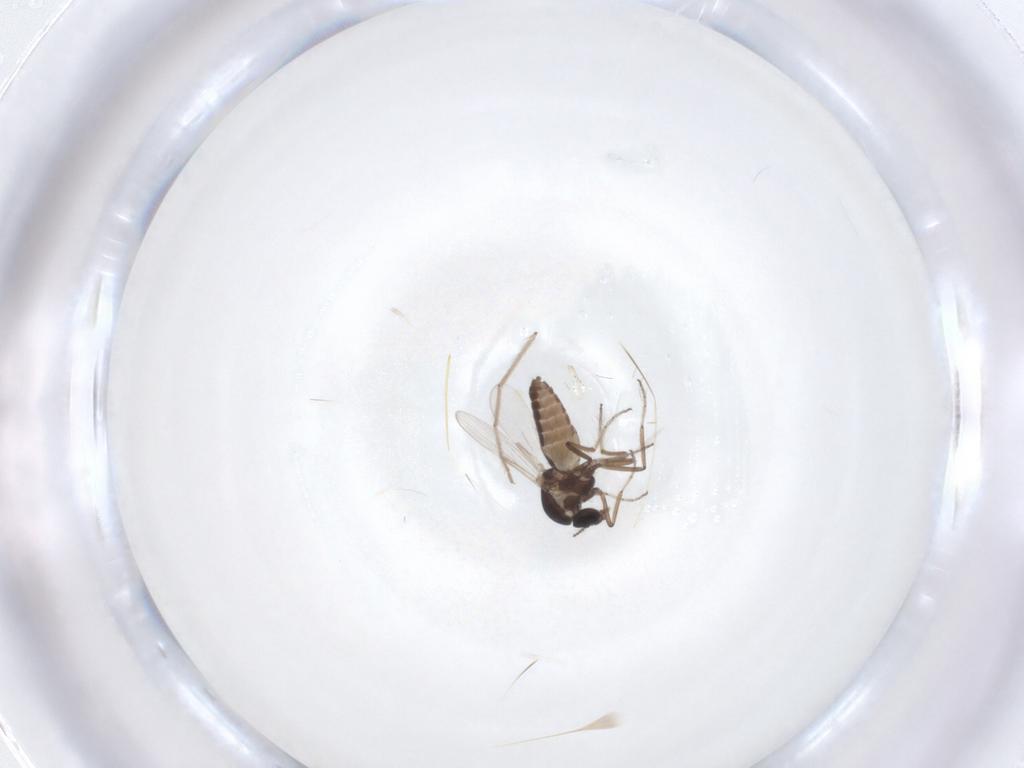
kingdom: Animalia
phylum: Arthropoda
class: Insecta
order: Diptera
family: Ceratopogonidae
